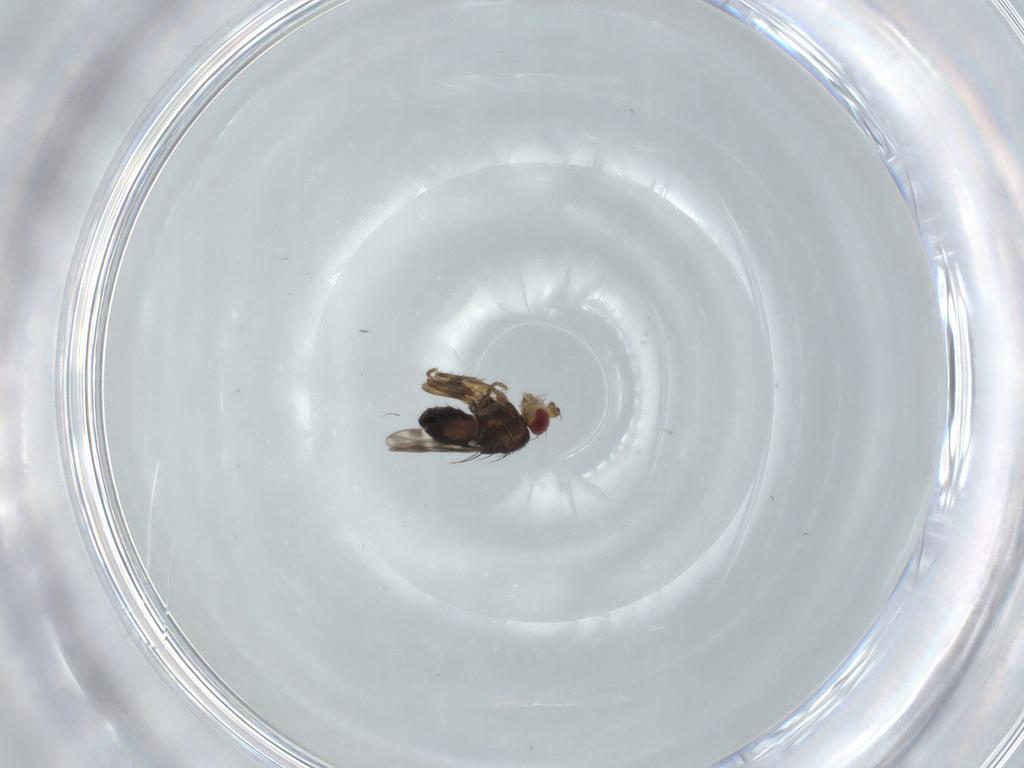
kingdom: Animalia
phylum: Arthropoda
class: Insecta
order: Diptera
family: Sphaeroceridae
